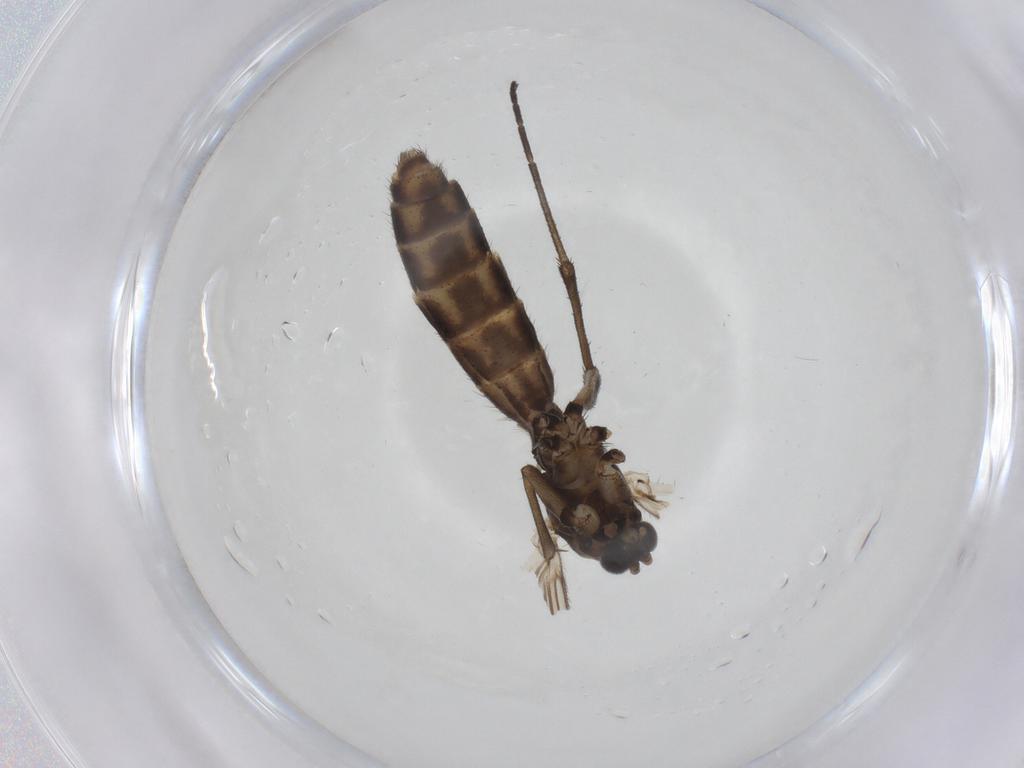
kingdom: Animalia
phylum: Arthropoda
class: Insecta
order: Diptera
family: Mycetophilidae
